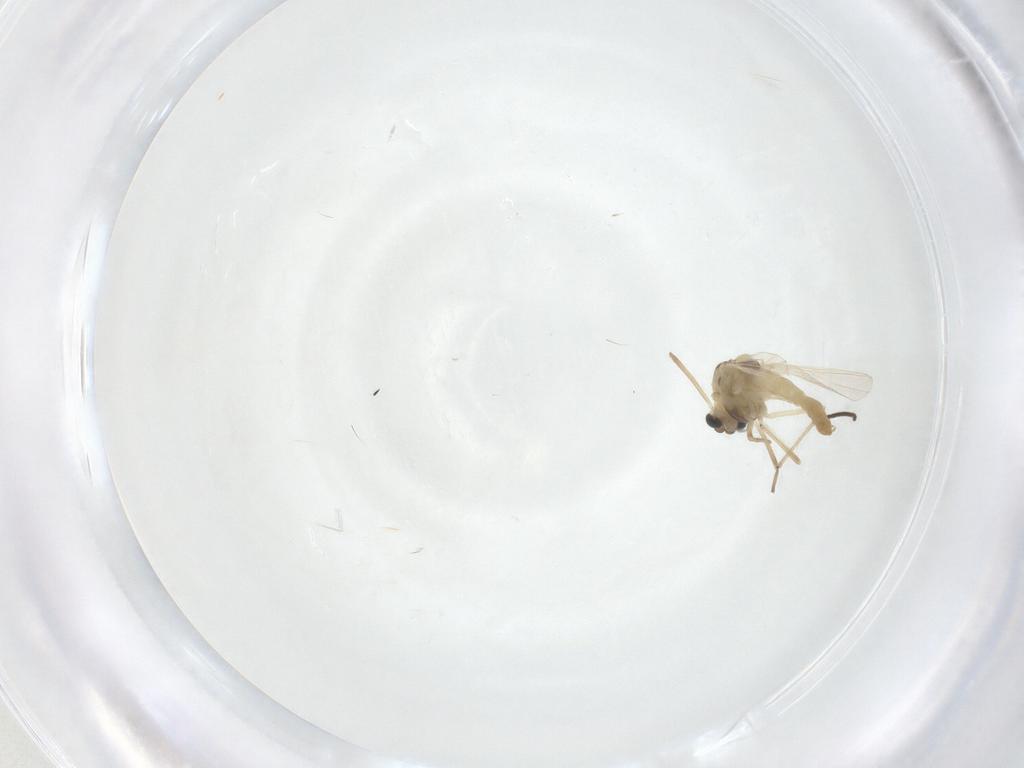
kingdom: Animalia
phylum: Arthropoda
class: Insecta
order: Diptera
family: Chironomidae
